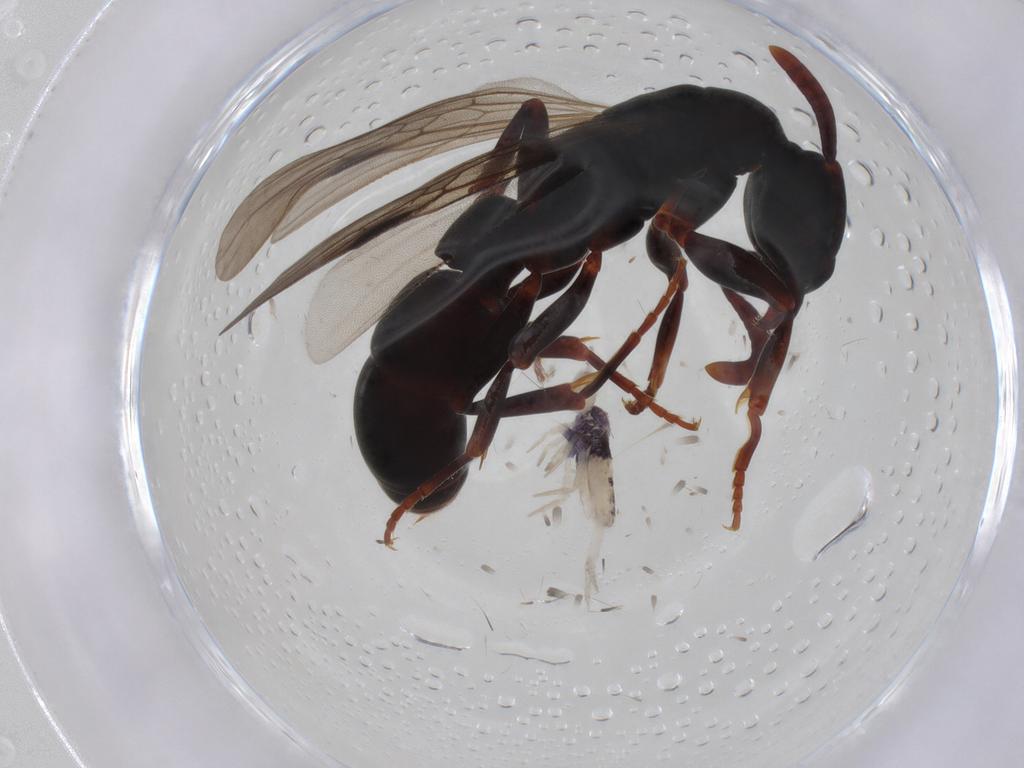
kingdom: Animalia
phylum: Arthropoda
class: Insecta
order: Hymenoptera
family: Formicidae
